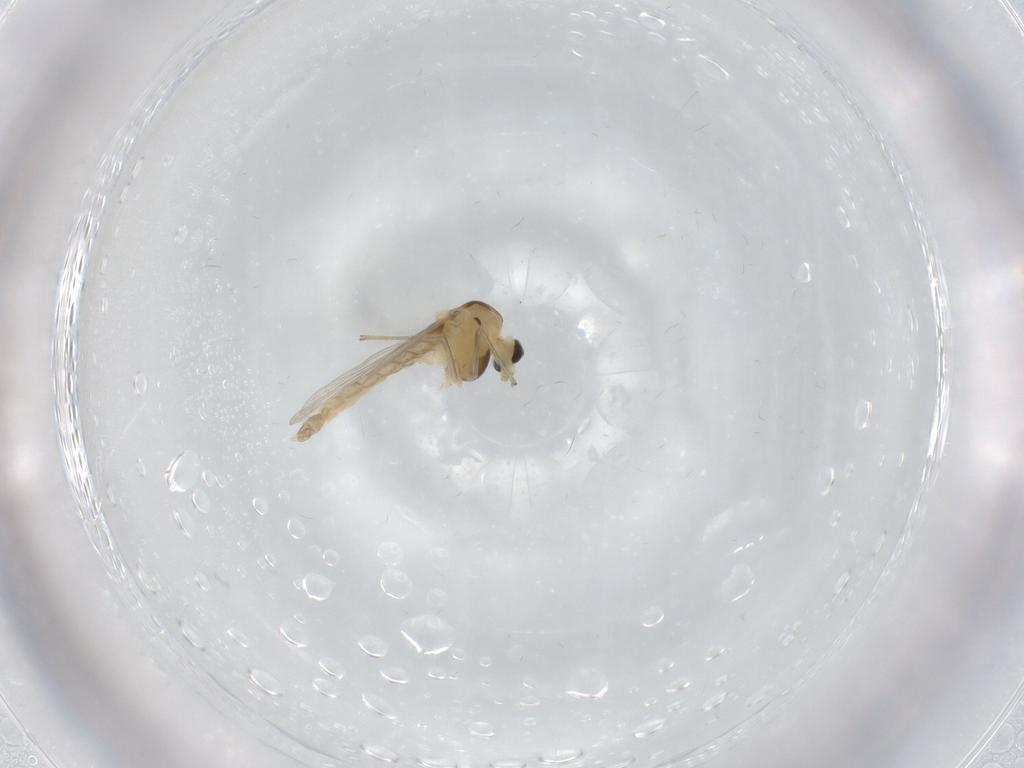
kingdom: Animalia
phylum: Arthropoda
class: Insecta
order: Diptera
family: Chironomidae
